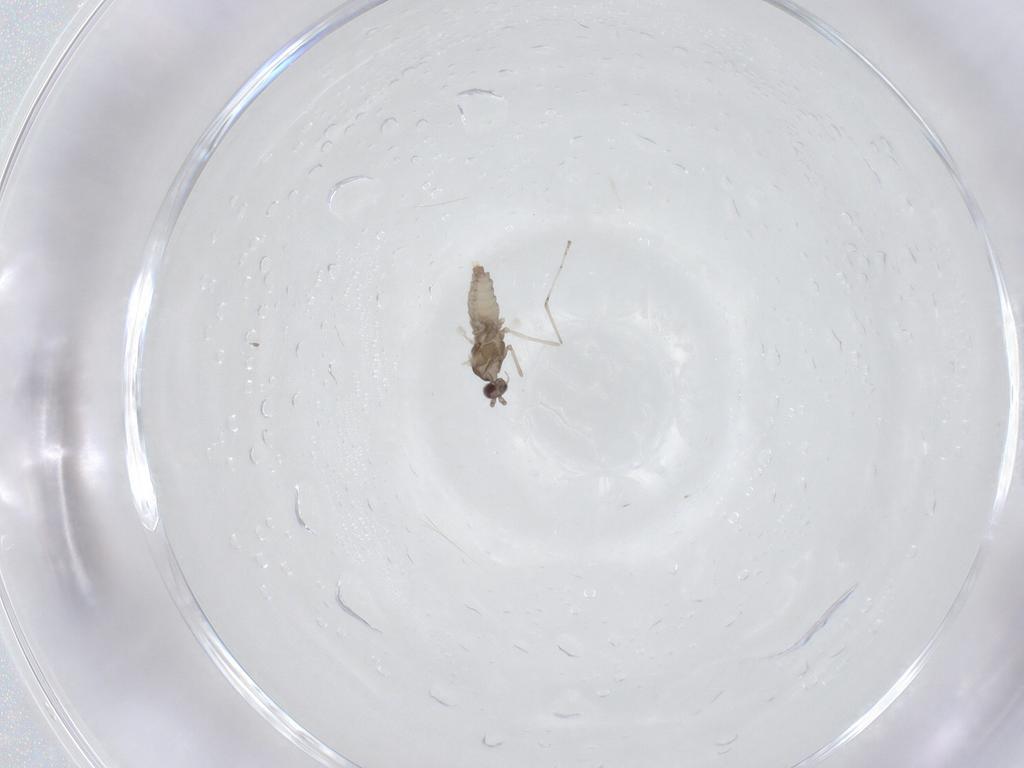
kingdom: Animalia
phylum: Arthropoda
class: Insecta
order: Diptera
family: Cecidomyiidae
